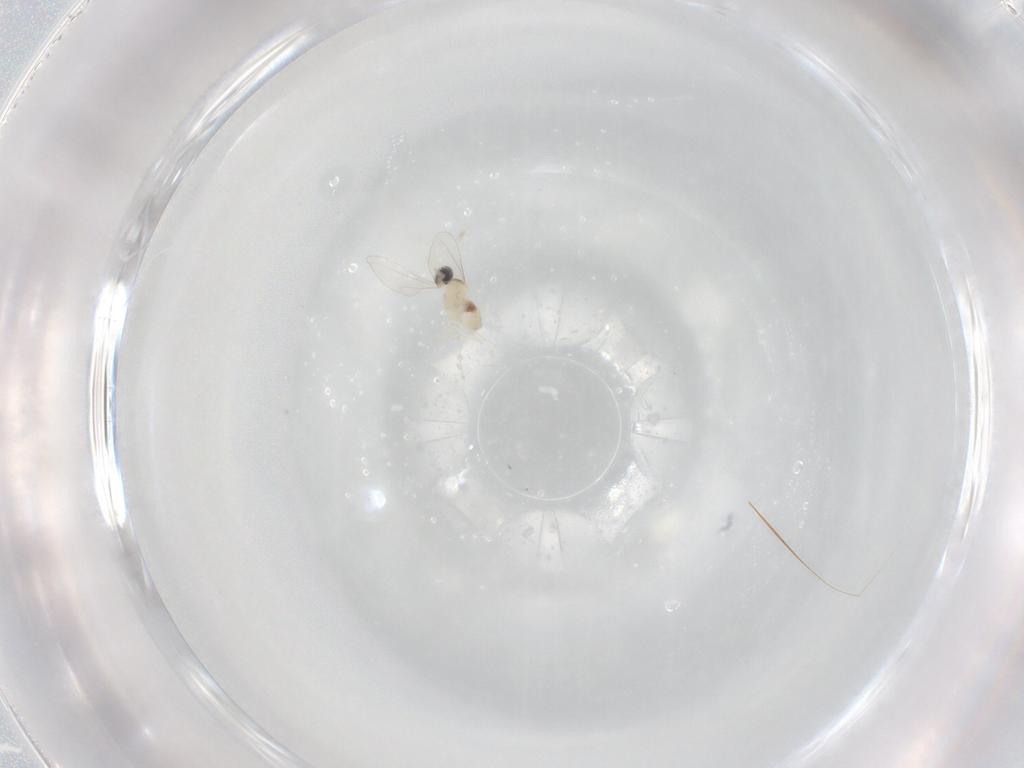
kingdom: Animalia
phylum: Arthropoda
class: Insecta
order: Diptera
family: Cecidomyiidae
